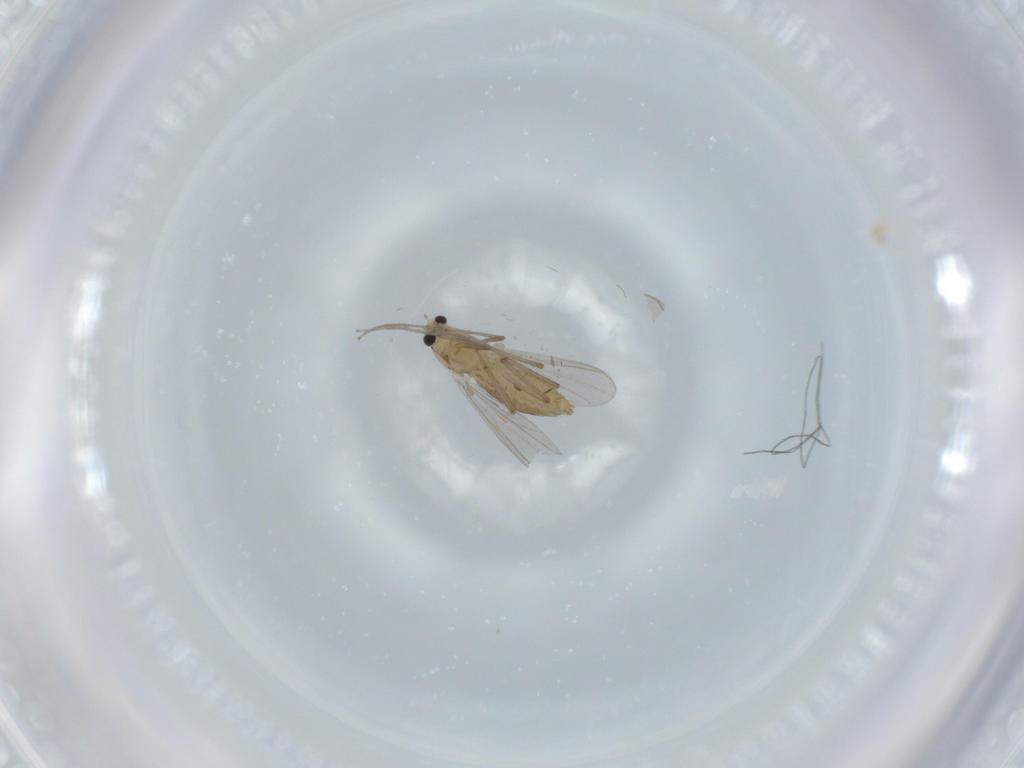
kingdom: Animalia
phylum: Arthropoda
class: Insecta
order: Diptera
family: Chironomidae
